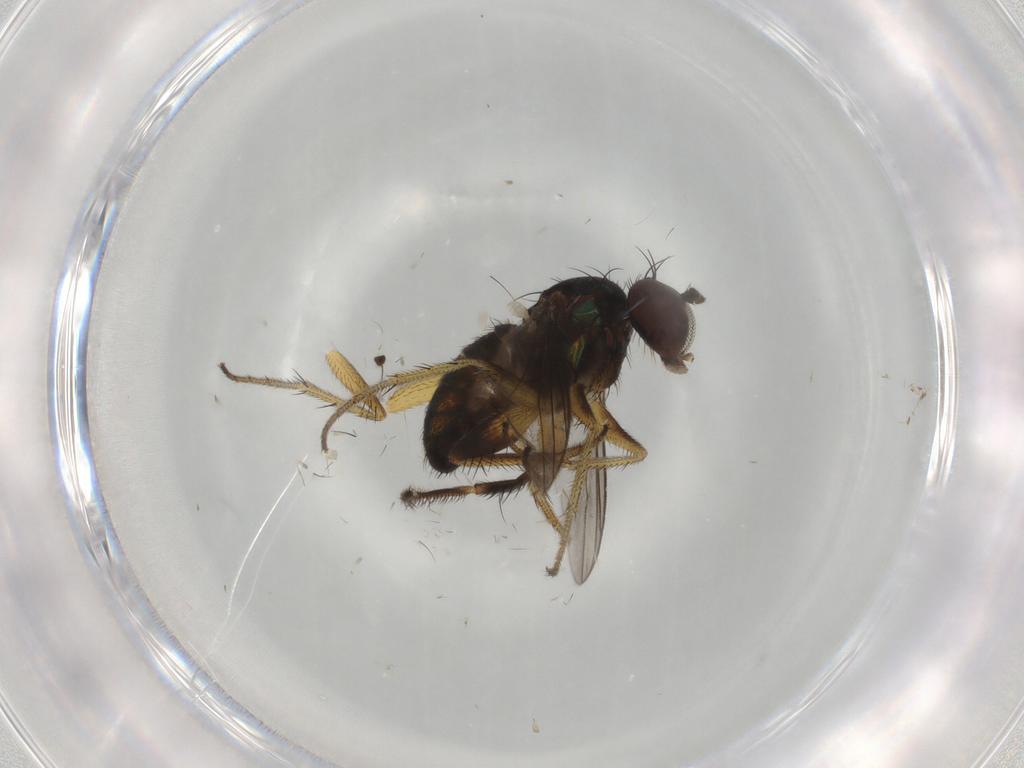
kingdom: Animalia
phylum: Arthropoda
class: Insecta
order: Diptera
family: Dolichopodidae
